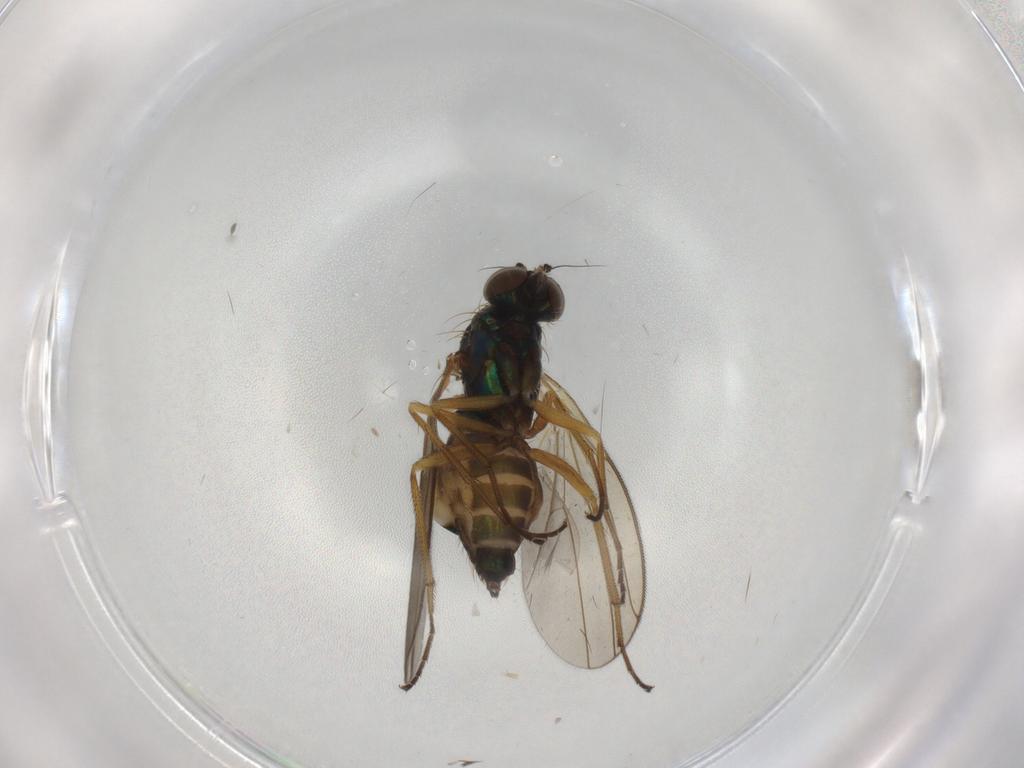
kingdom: Animalia
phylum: Arthropoda
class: Insecta
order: Diptera
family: Dolichopodidae
